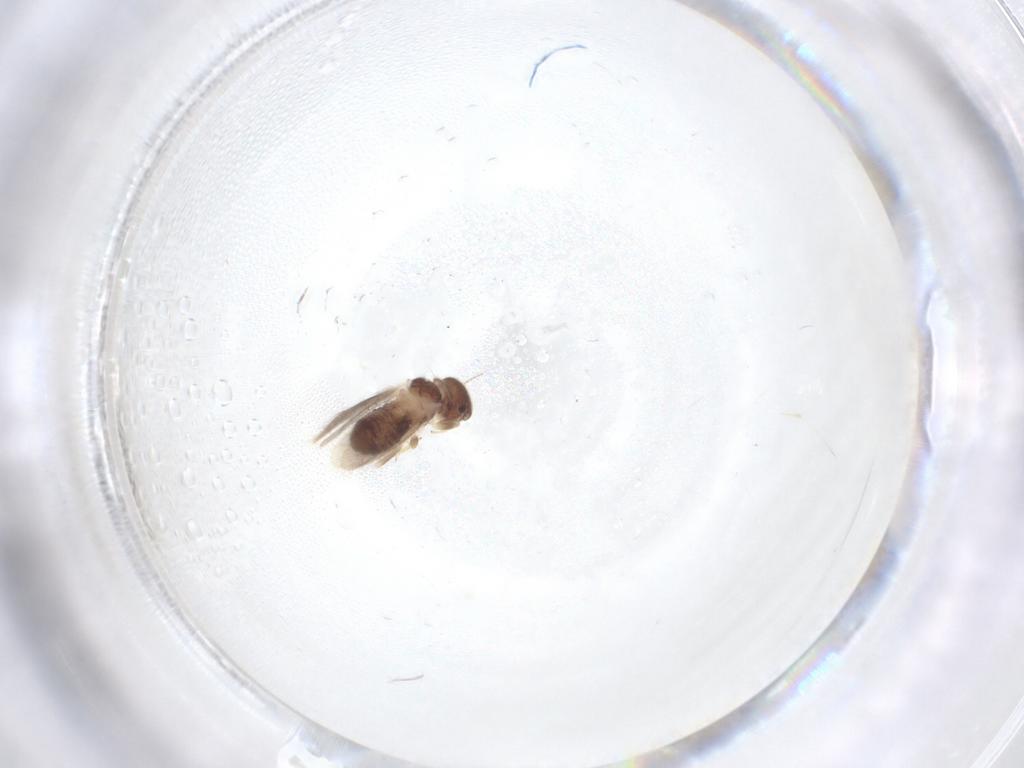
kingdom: Animalia
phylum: Arthropoda
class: Insecta
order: Psocodea
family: Archipsocidae
